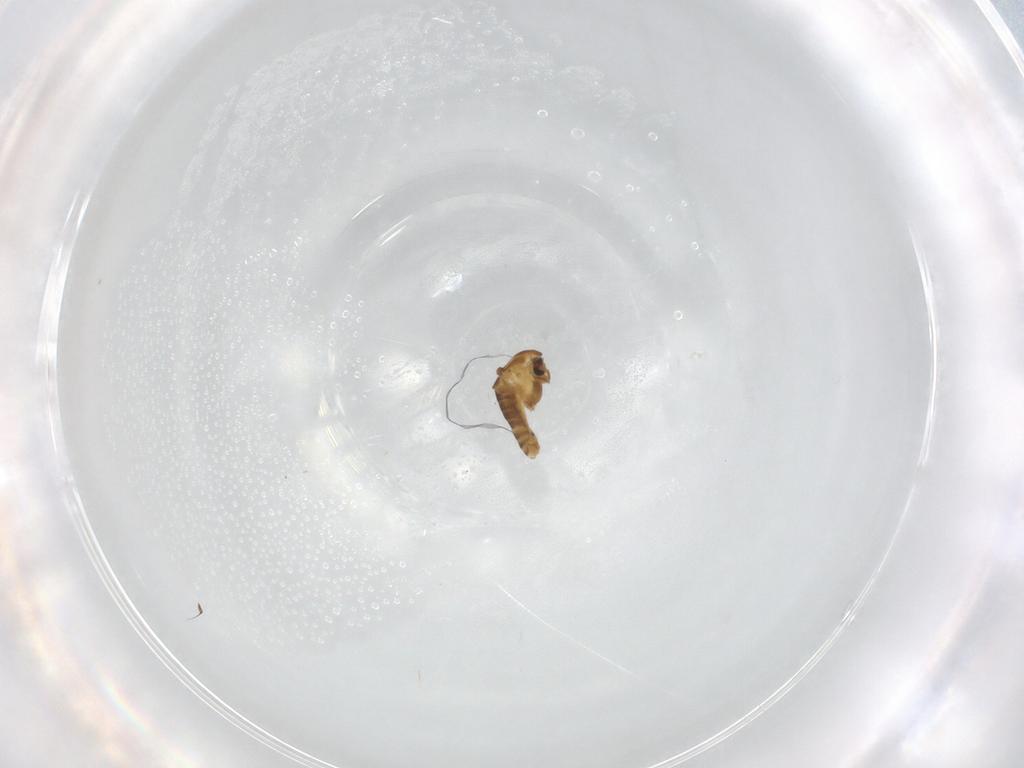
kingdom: Animalia
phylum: Arthropoda
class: Insecta
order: Diptera
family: Chironomidae
